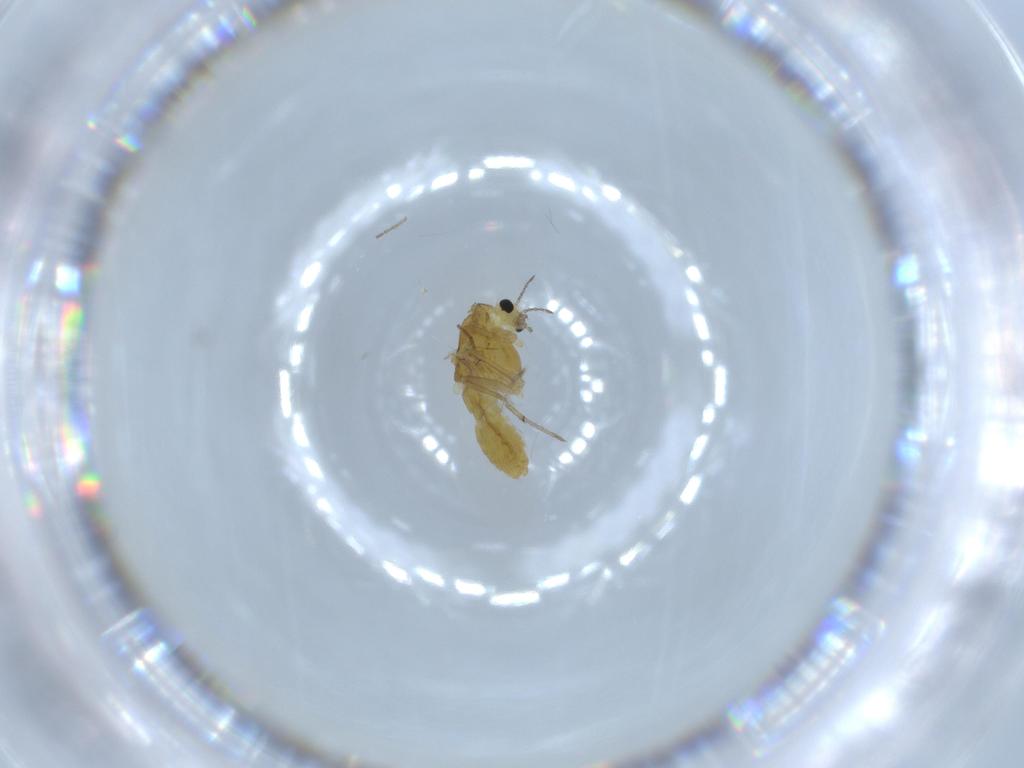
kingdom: Animalia
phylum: Arthropoda
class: Insecta
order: Diptera
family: Chironomidae
